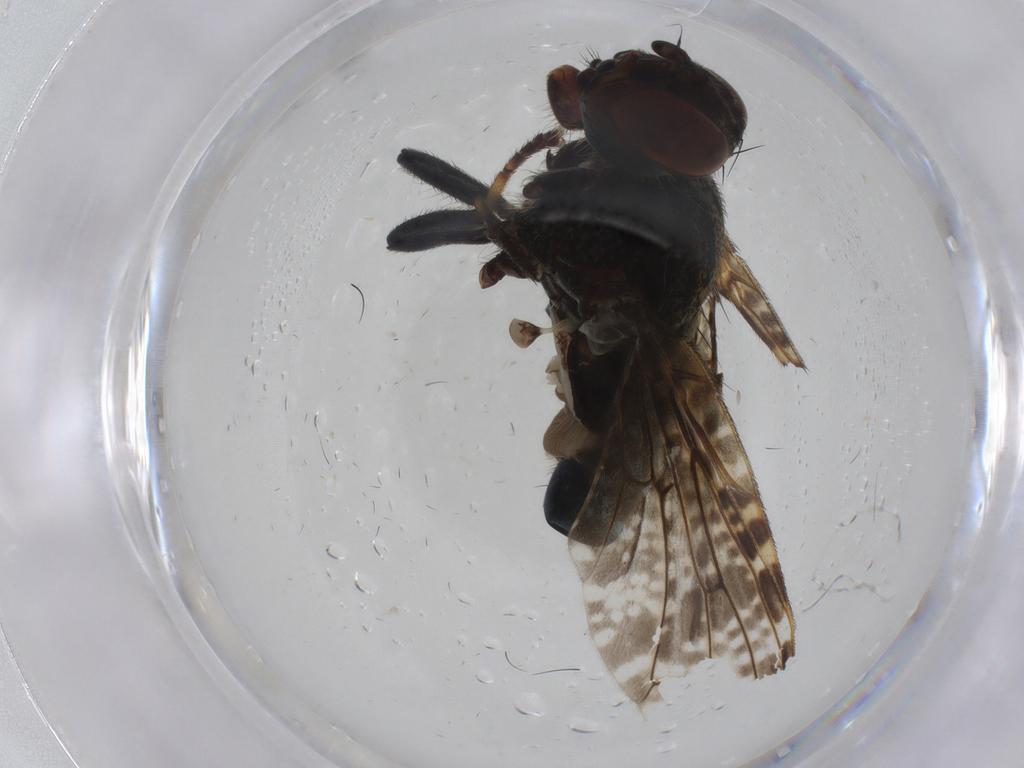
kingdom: Animalia
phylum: Arthropoda
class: Insecta
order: Diptera
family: Platystomatidae
